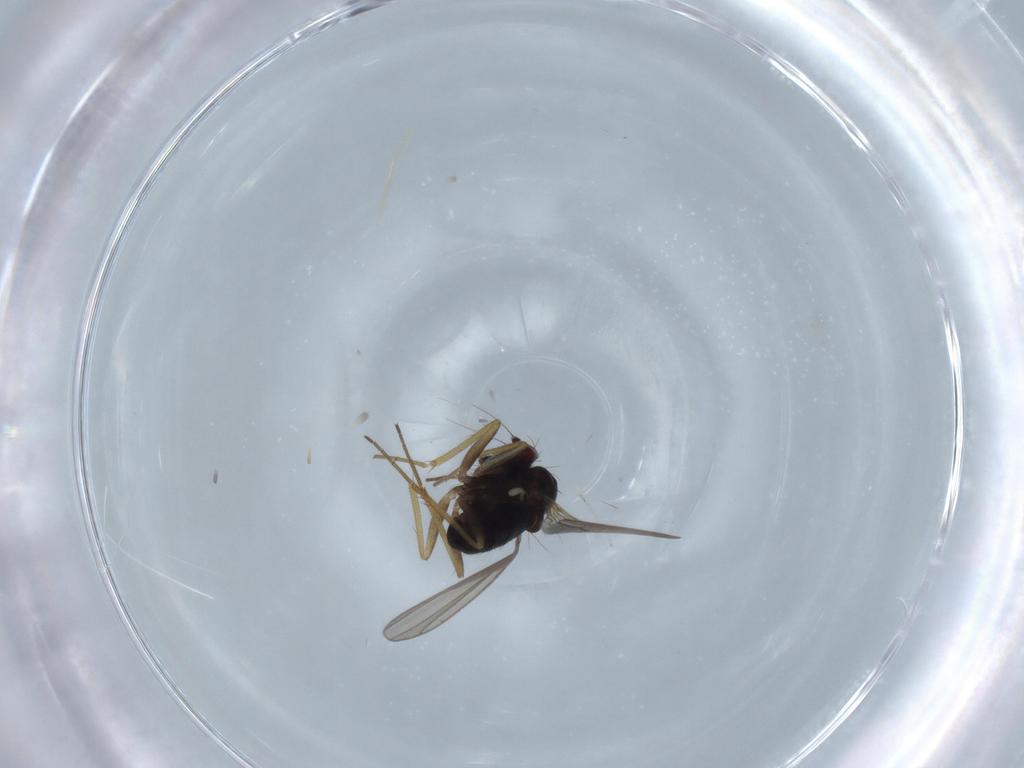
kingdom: Animalia
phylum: Arthropoda
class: Insecta
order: Diptera
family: Dolichopodidae
